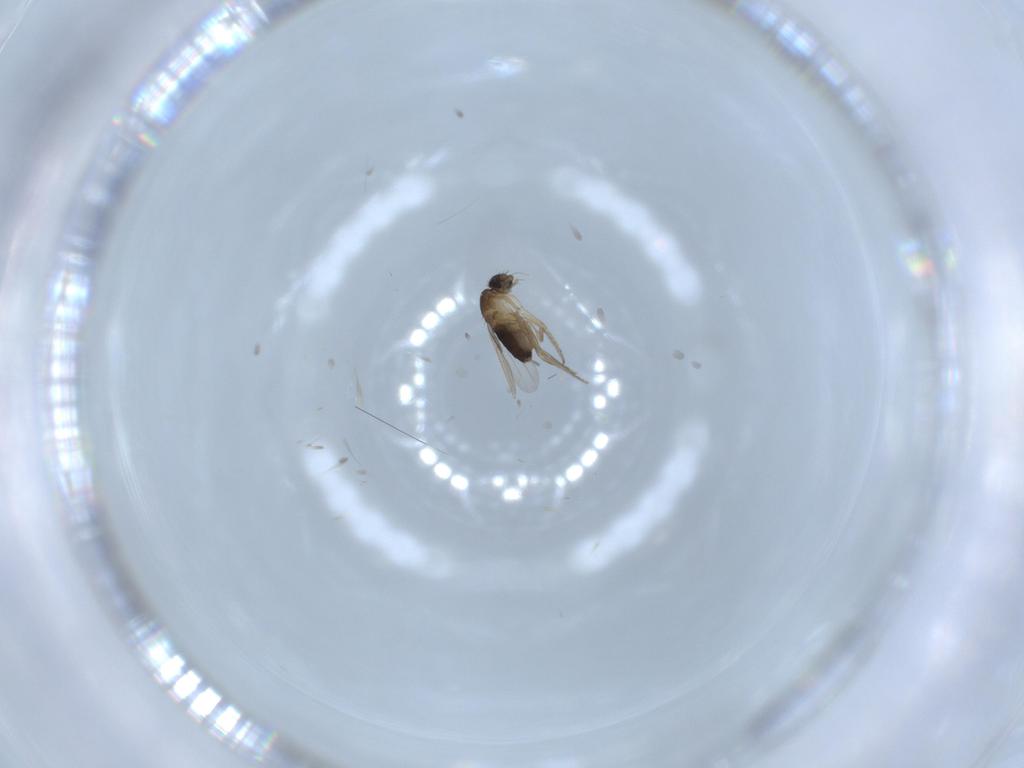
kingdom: Animalia
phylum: Arthropoda
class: Insecta
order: Diptera
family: Phoridae
